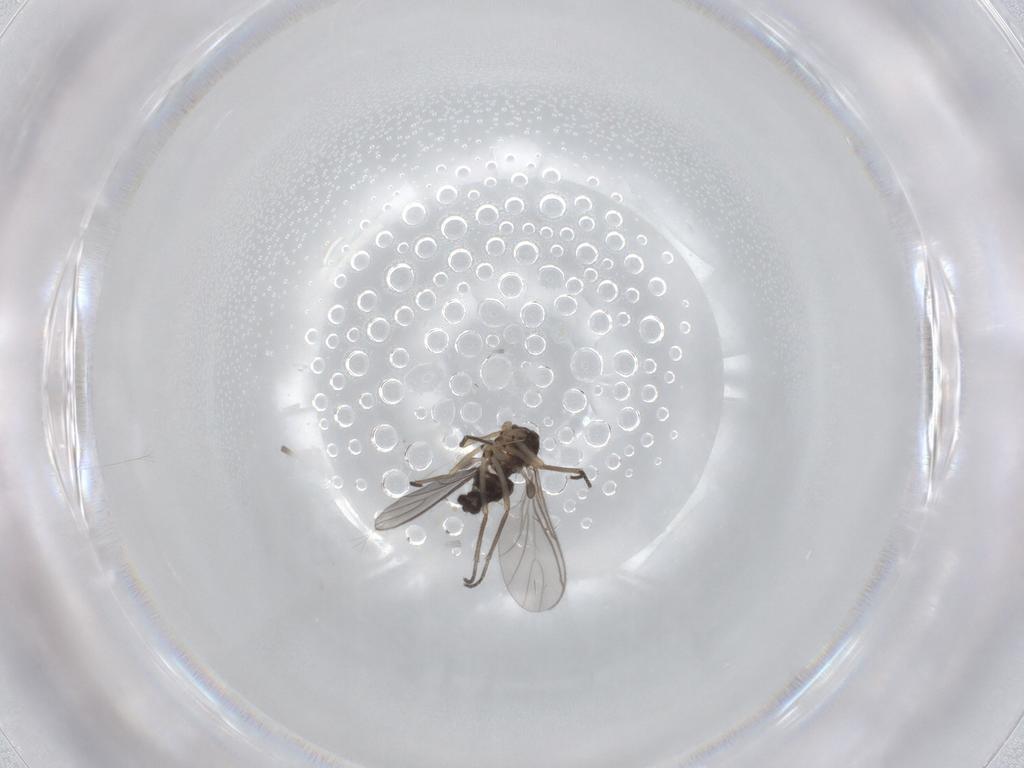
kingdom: Animalia
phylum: Arthropoda
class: Insecta
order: Diptera
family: Sciaridae
